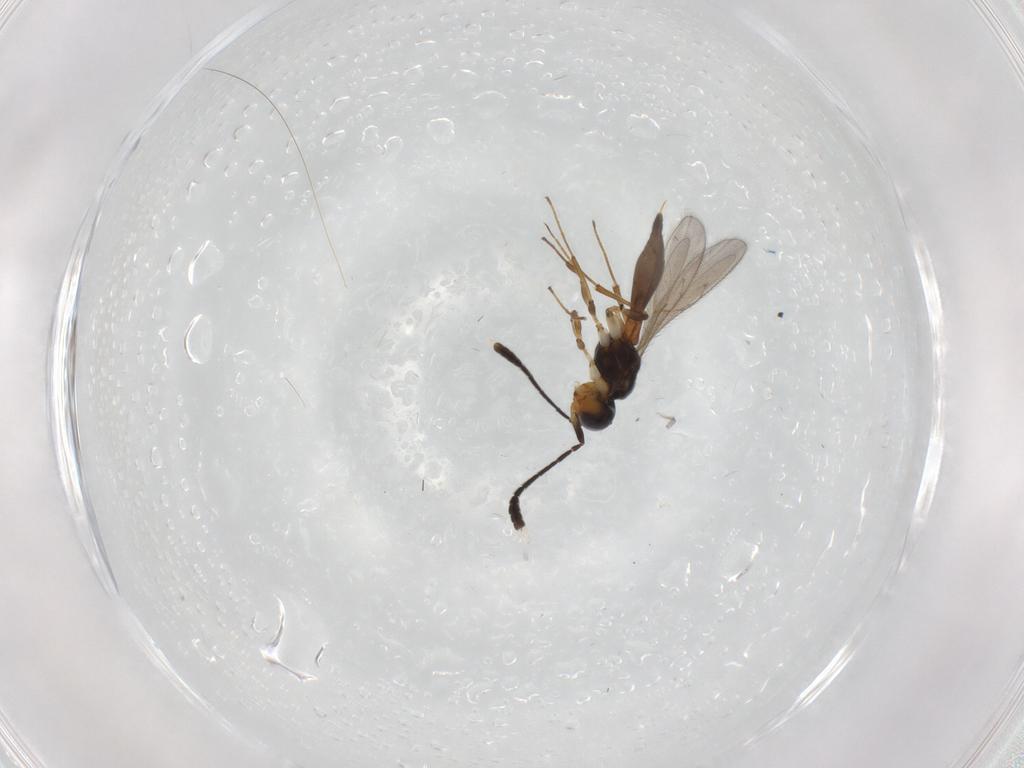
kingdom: Animalia
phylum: Arthropoda
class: Insecta
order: Hymenoptera
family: Scelionidae
